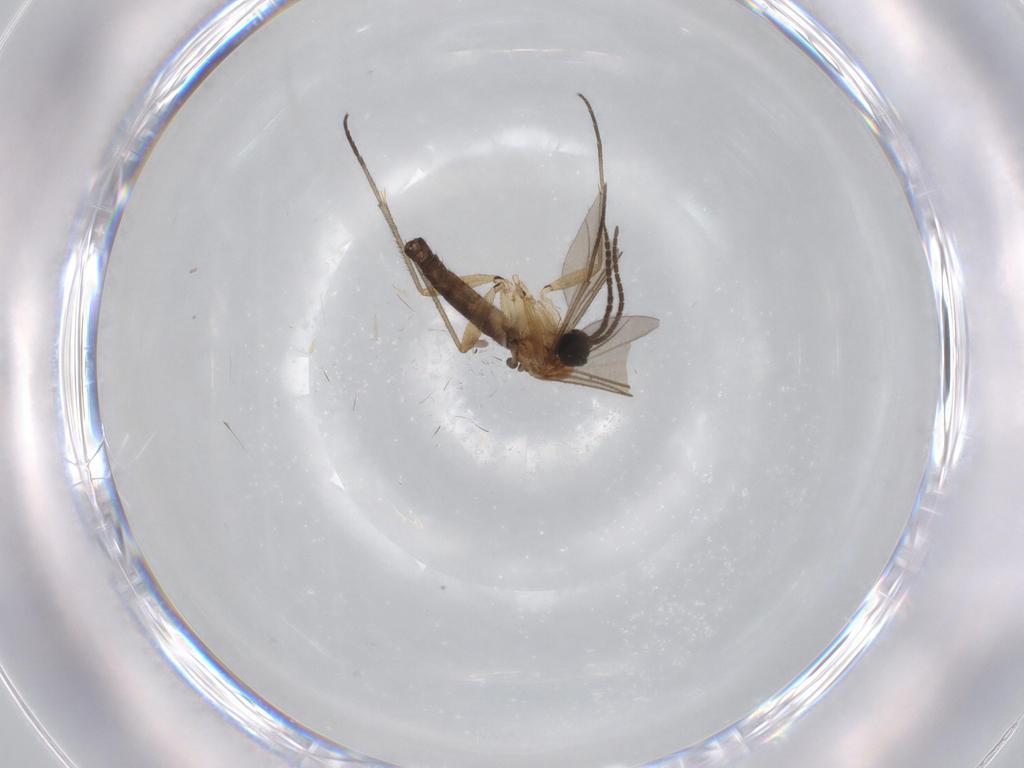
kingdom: Animalia
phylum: Arthropoda
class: Insecta
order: Diptera
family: Sciaridae
